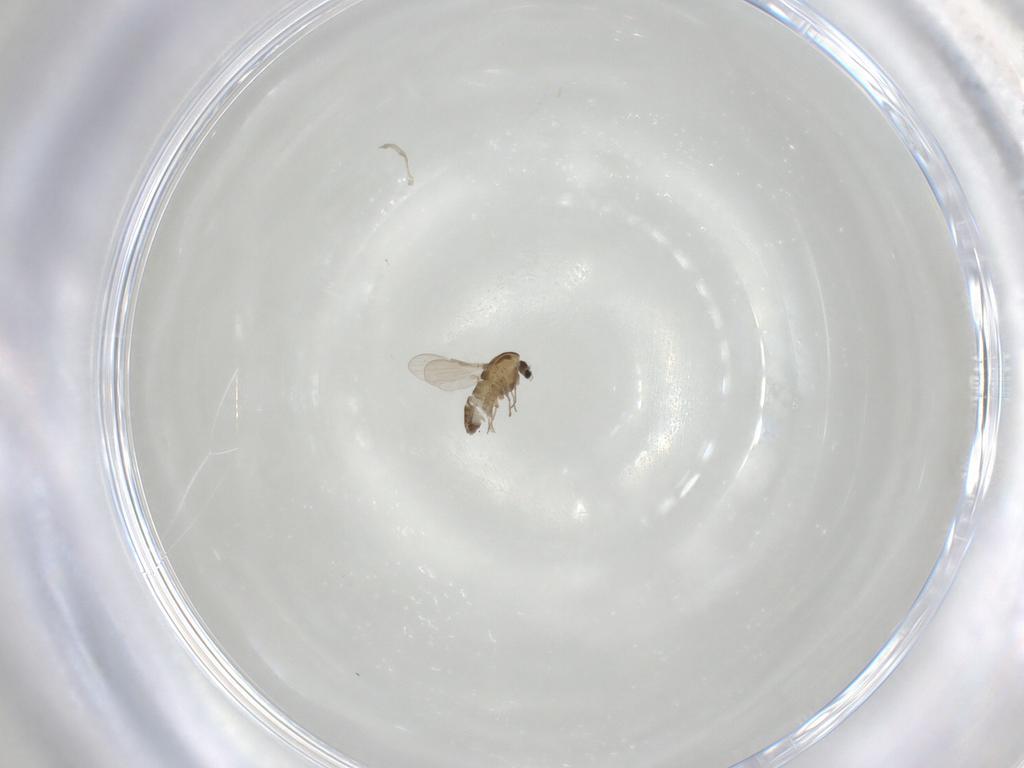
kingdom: Animalia
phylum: Arthropoda
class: Insecta
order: Diptera
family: Chironomidae
